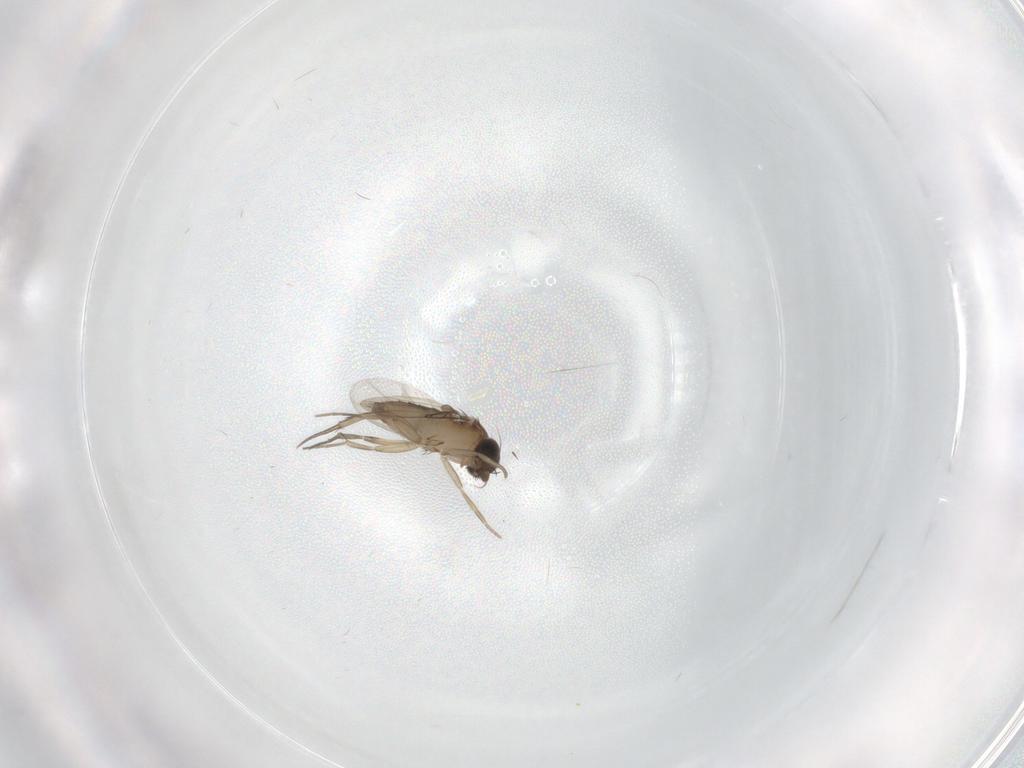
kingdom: Animalia
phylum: Arthropoda
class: Insecta
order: Diptera
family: Phoridae
